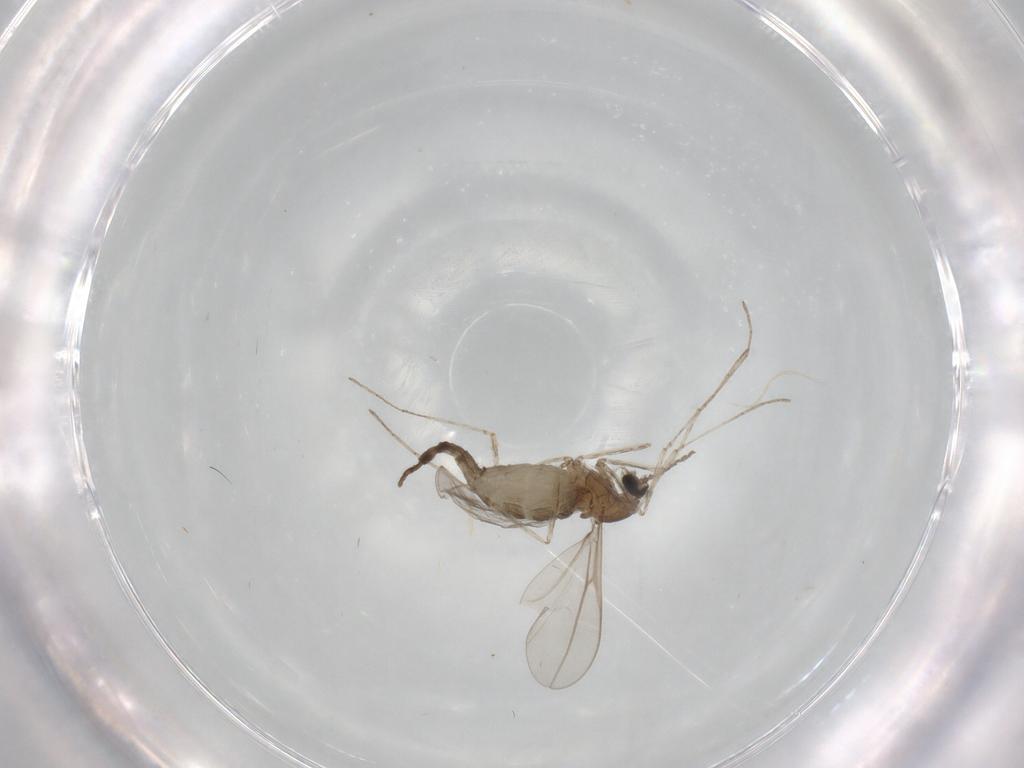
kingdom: Animalia
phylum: Arthropoda
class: Insecta
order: Diptera
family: Cecidomyiidae
